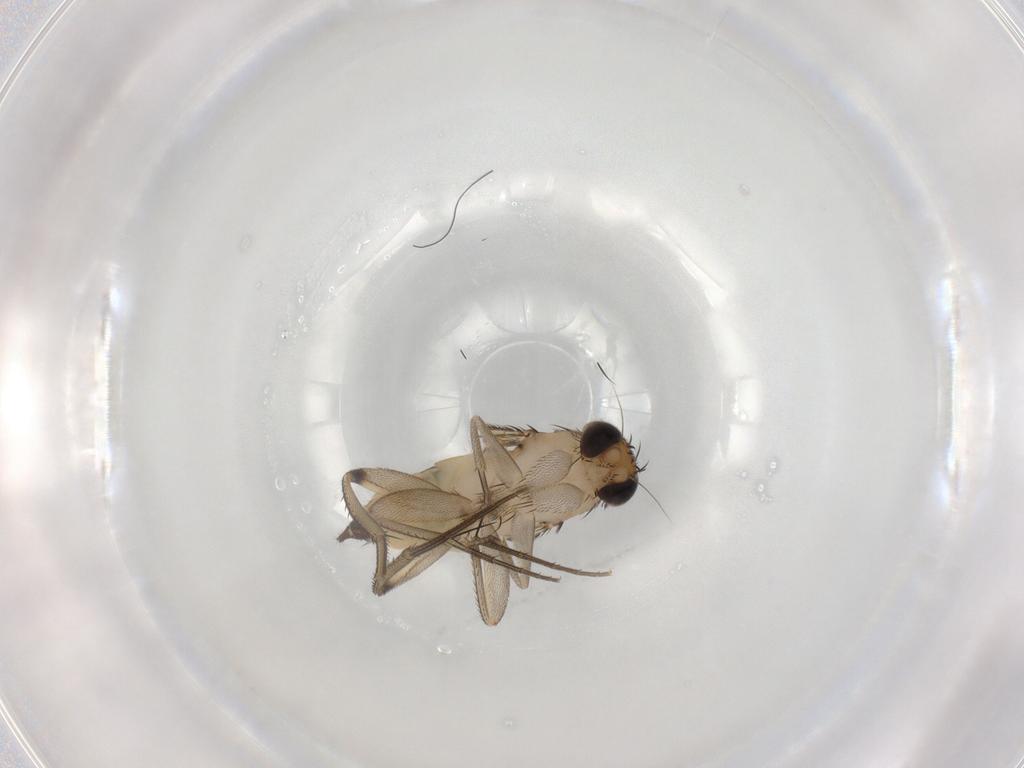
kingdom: Animalia
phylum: Arthropoda
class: Insecta
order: Diptera
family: Phoridae
